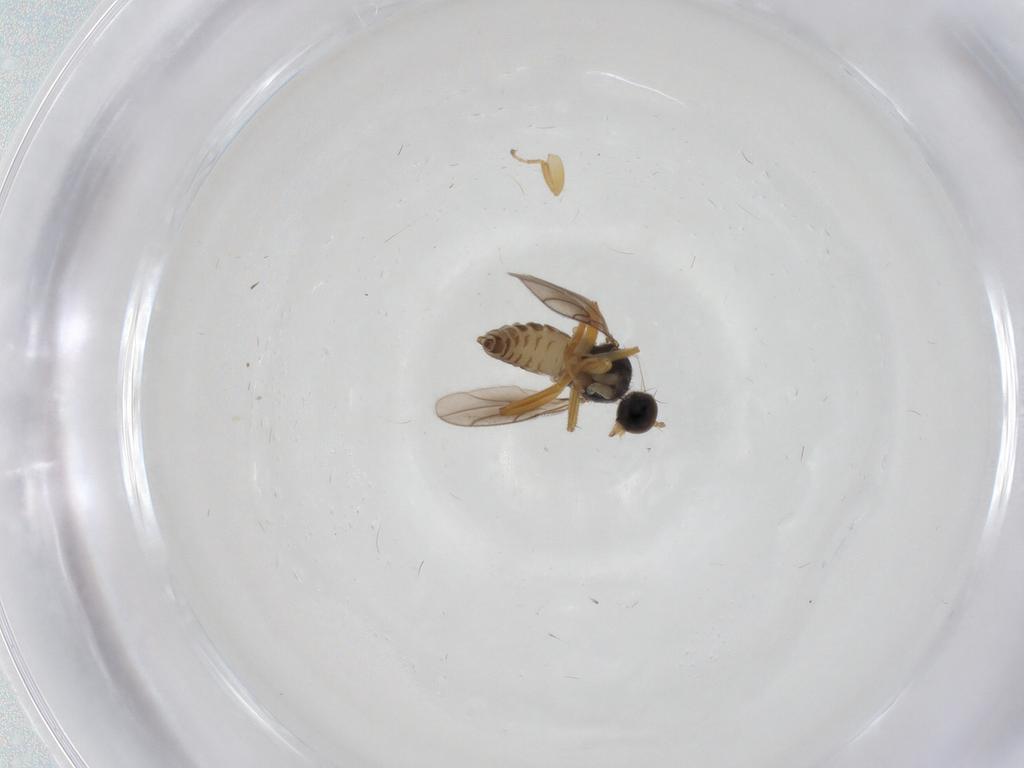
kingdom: Animalia
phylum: Arthropoda
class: Insecta
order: Diptera
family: Hybotidae
